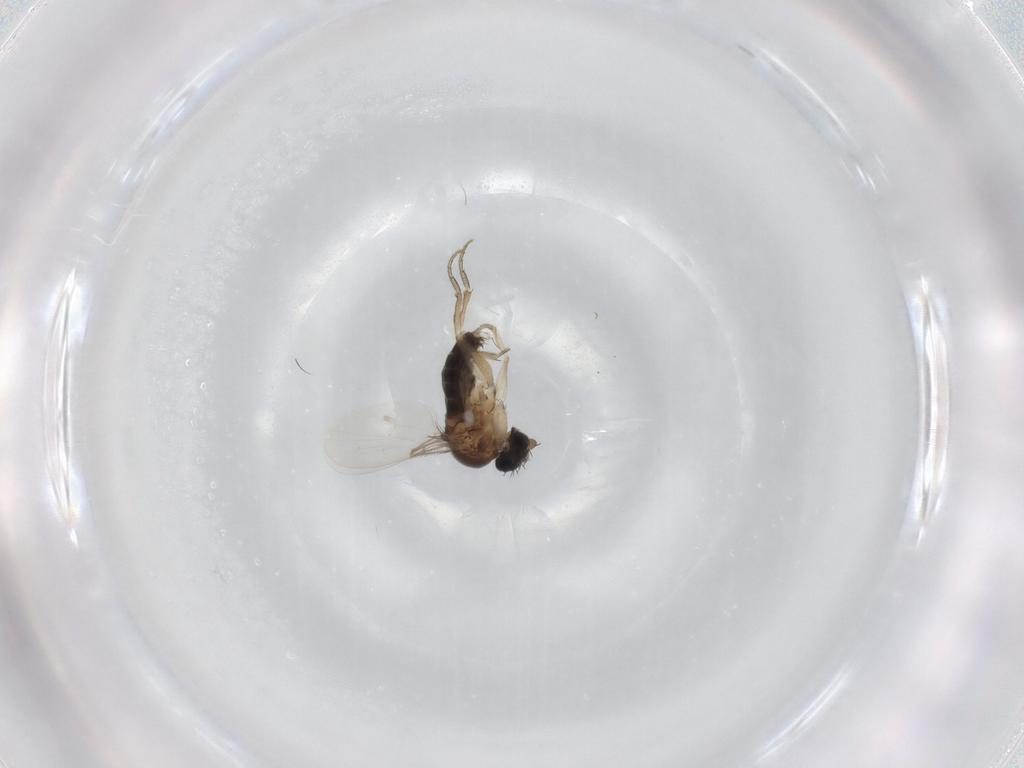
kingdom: Animalia
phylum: Arthropoda
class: Insecta
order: Diptera
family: Phoridae
